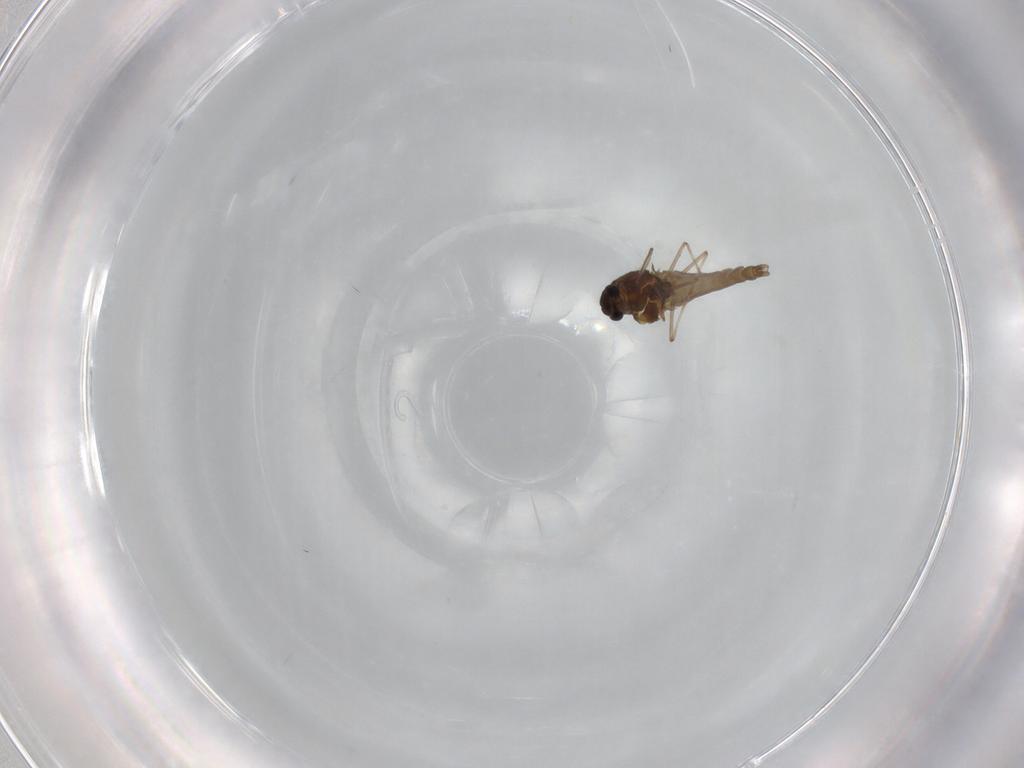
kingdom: Animalia
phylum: Arthropoda
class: Insecta
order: Diptera
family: Chironomidae
